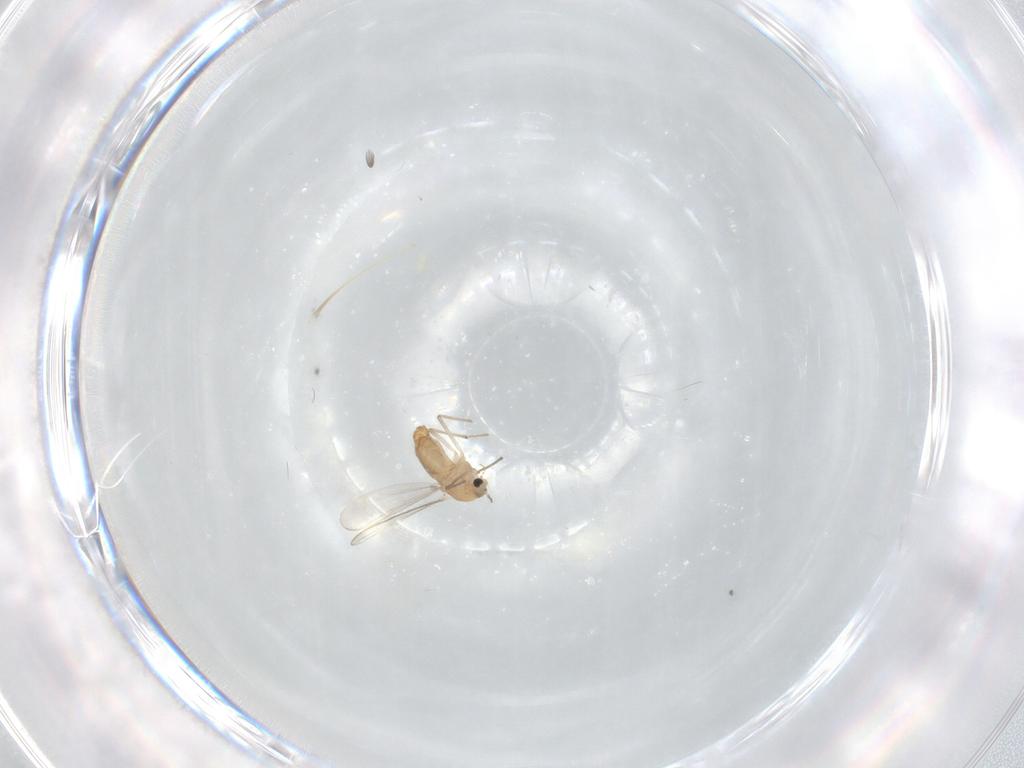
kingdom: Animalia
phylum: Arthropoda
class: Insecta
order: Diptera
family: Chironomidae
